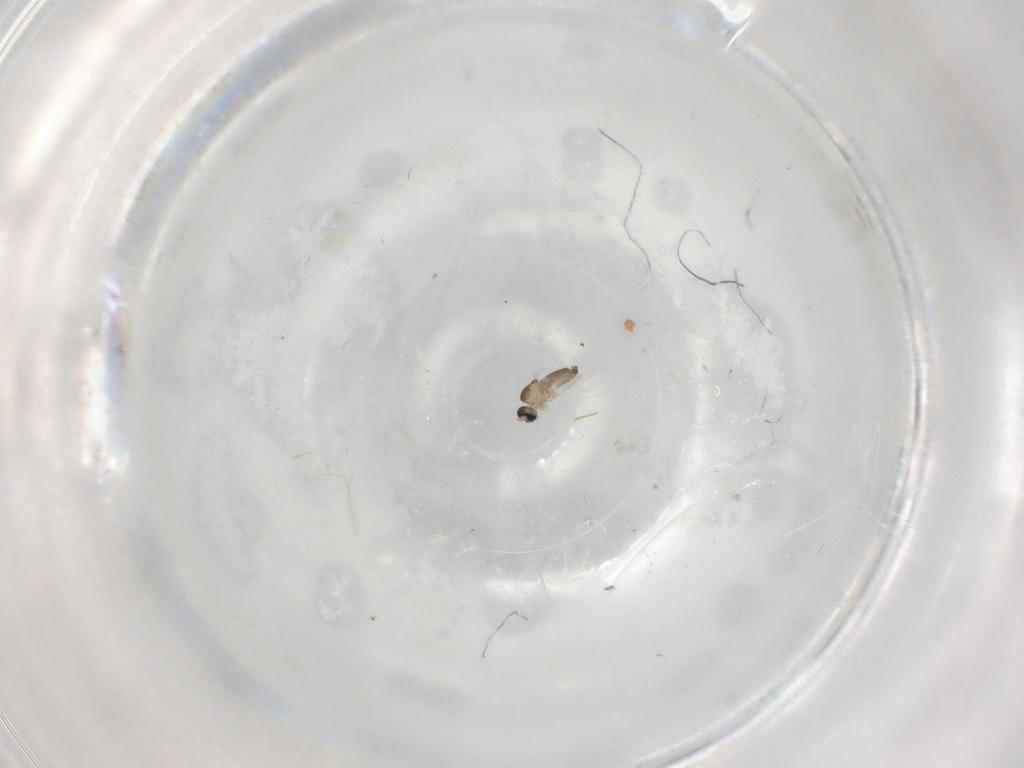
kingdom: Animalia
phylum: Arthropoda
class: Insecta
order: Diptera
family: Cecidomyiidae
